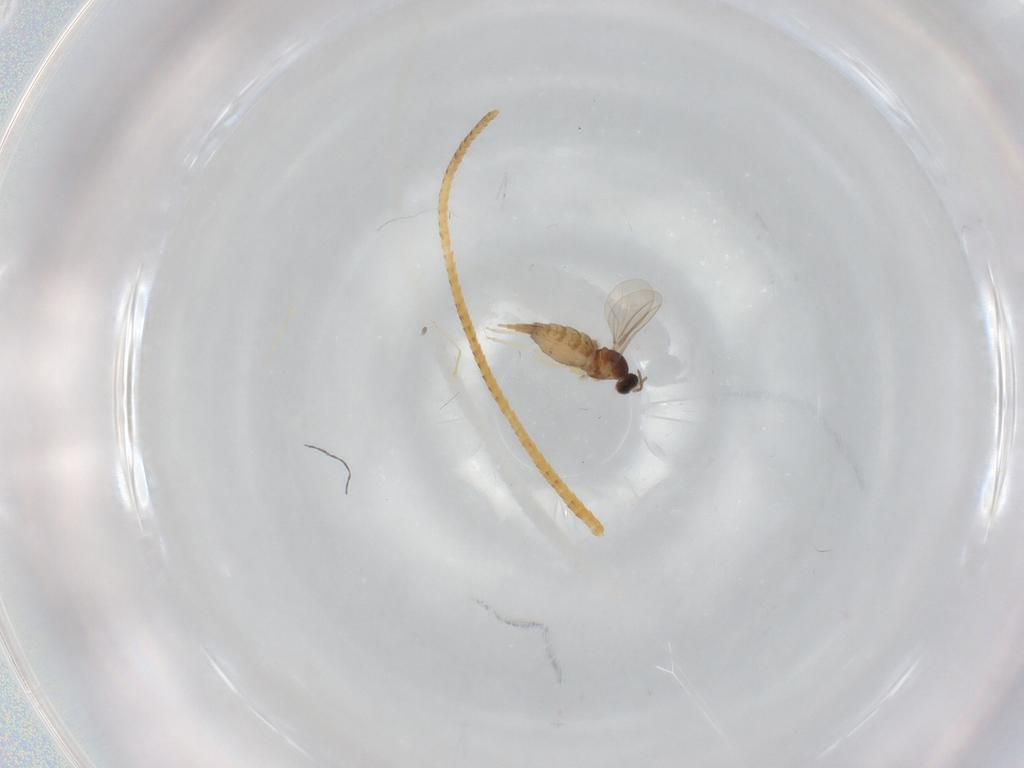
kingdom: Animalia
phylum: Arthropoda
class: Insecta
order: Diptera
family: Cecidomyiidae
